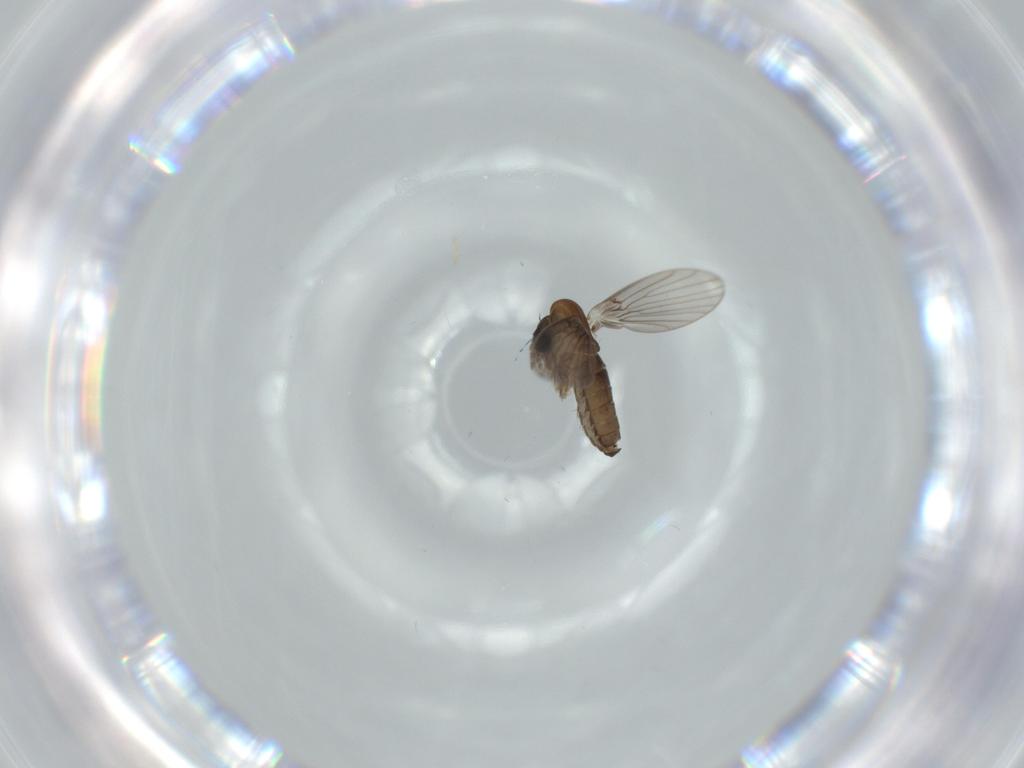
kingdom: Animalia
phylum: Arthropoda
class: Insecta
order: Diptera
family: Psychodidae
